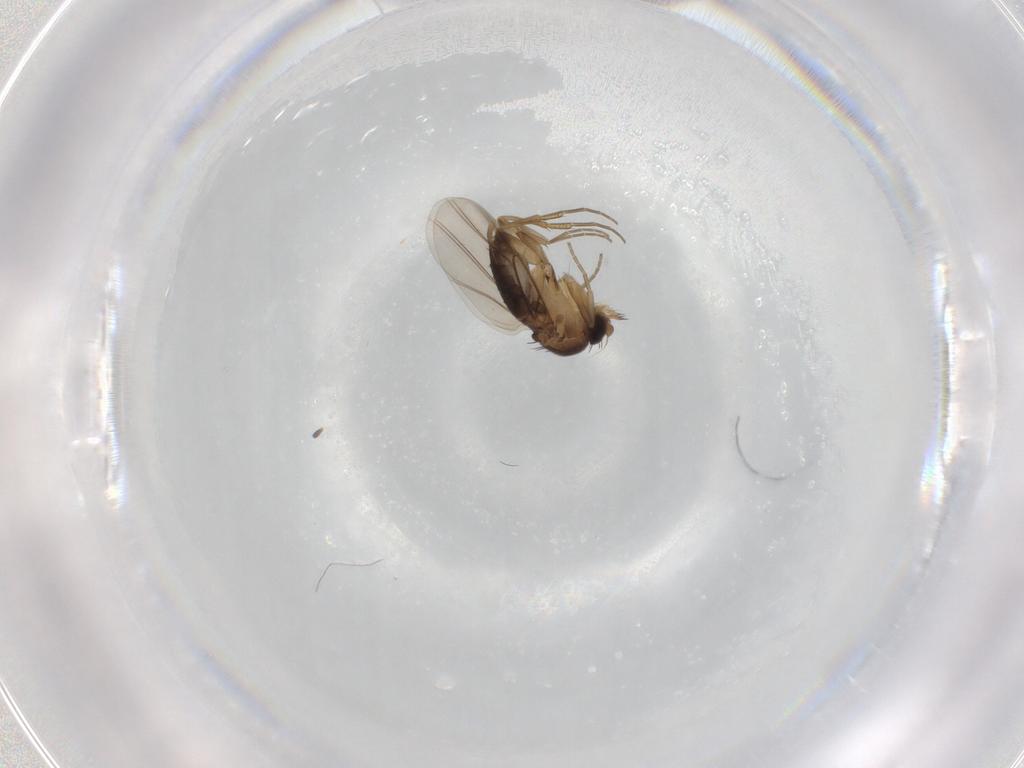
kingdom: Animalia
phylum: Arthropoda
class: Insecta
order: Diptera
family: Phoridae
